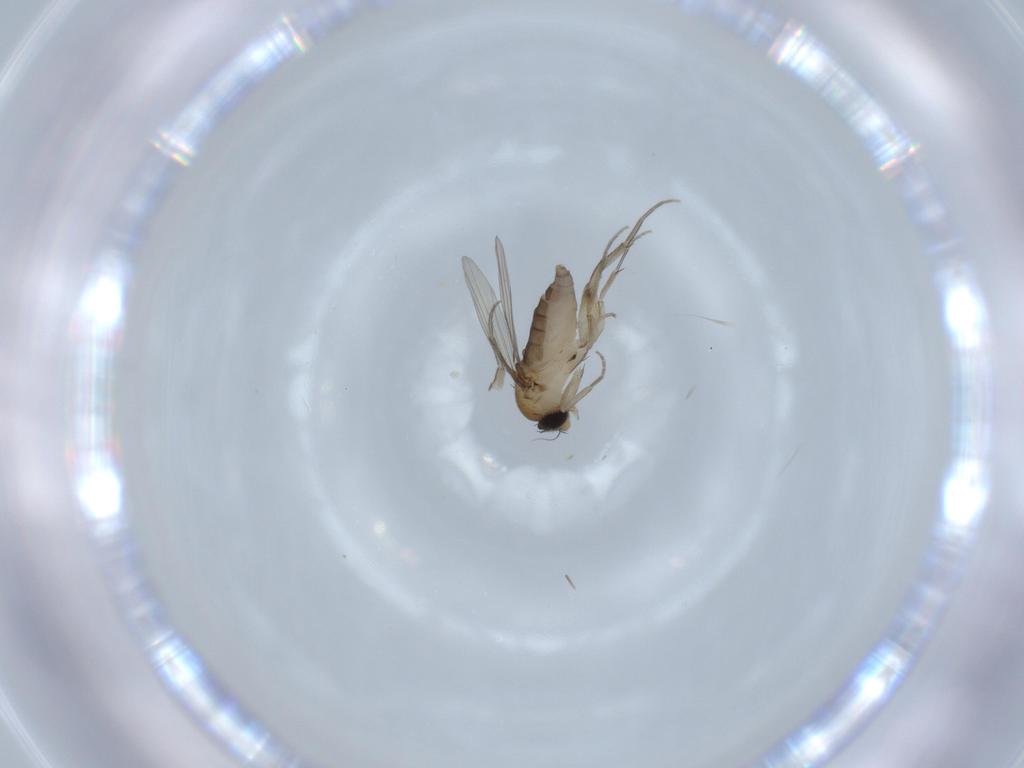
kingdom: Animalia
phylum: Arthropoda
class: Insecta
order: Diptera
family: Phoridae
